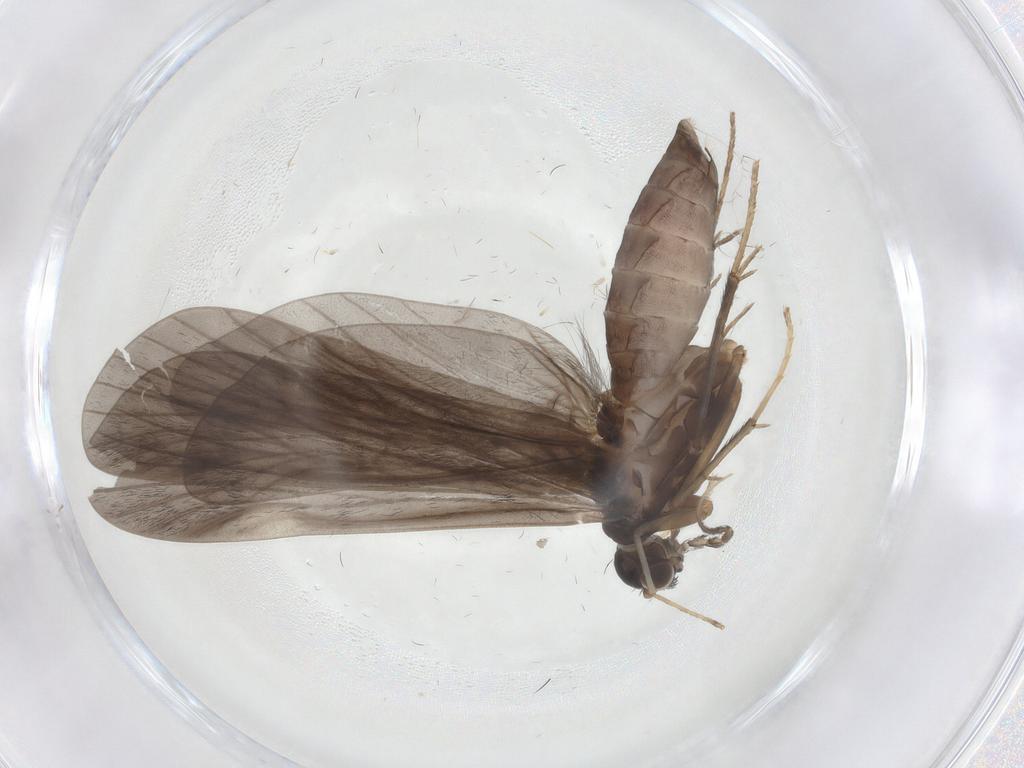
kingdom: Animalia
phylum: Arthropoda
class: Insecta
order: Trichoptera
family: Hydropsychidae
